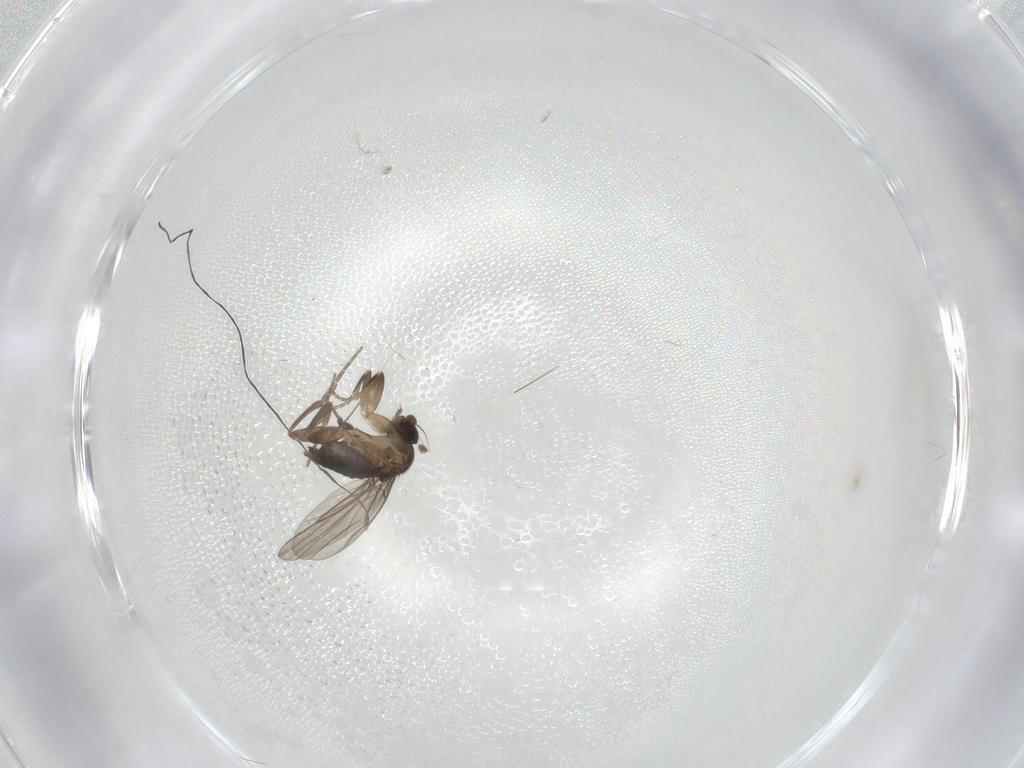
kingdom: Animalia
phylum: Arthropoda
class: Insecta
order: Diptera
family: Phoridae
